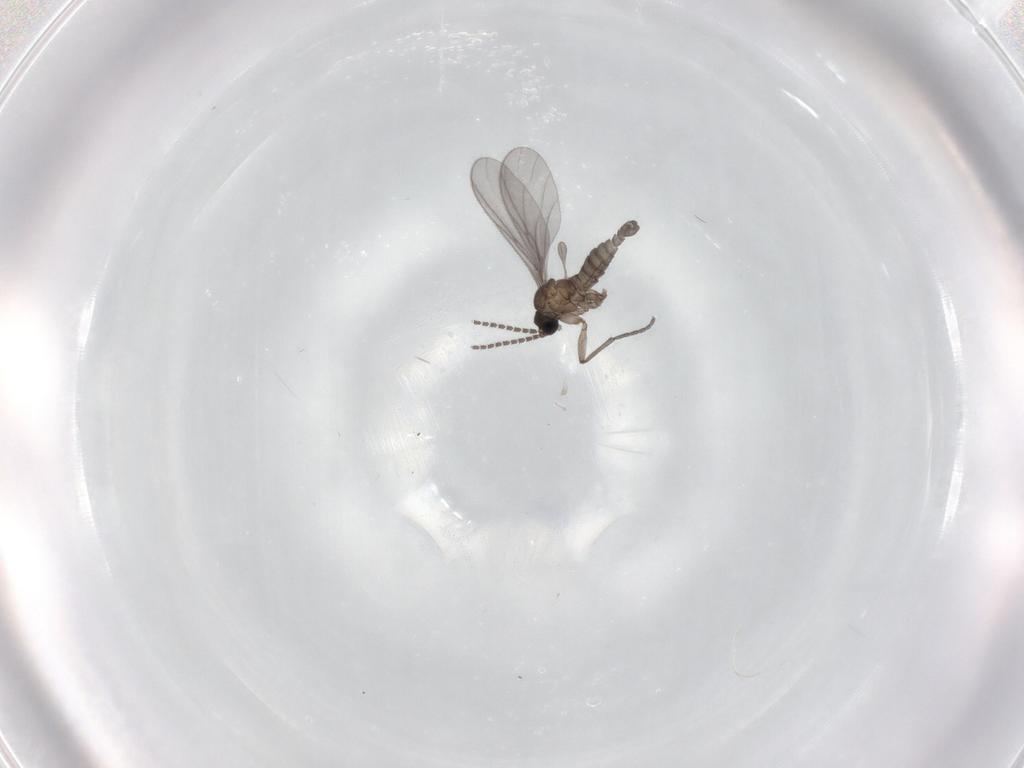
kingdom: Animalia
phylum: Arthropoda
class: Insecta
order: Diptera
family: Sciaridae
